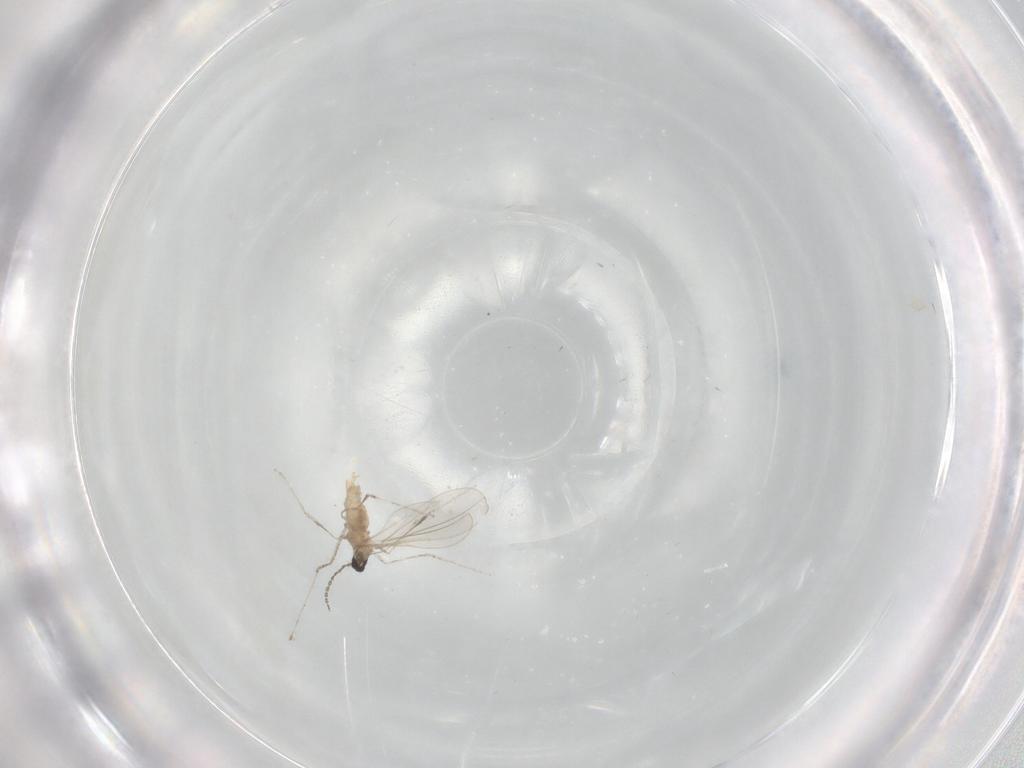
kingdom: Animalia
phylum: Arthropoda
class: Insecta
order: Diptera
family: Cecidomyiidae
